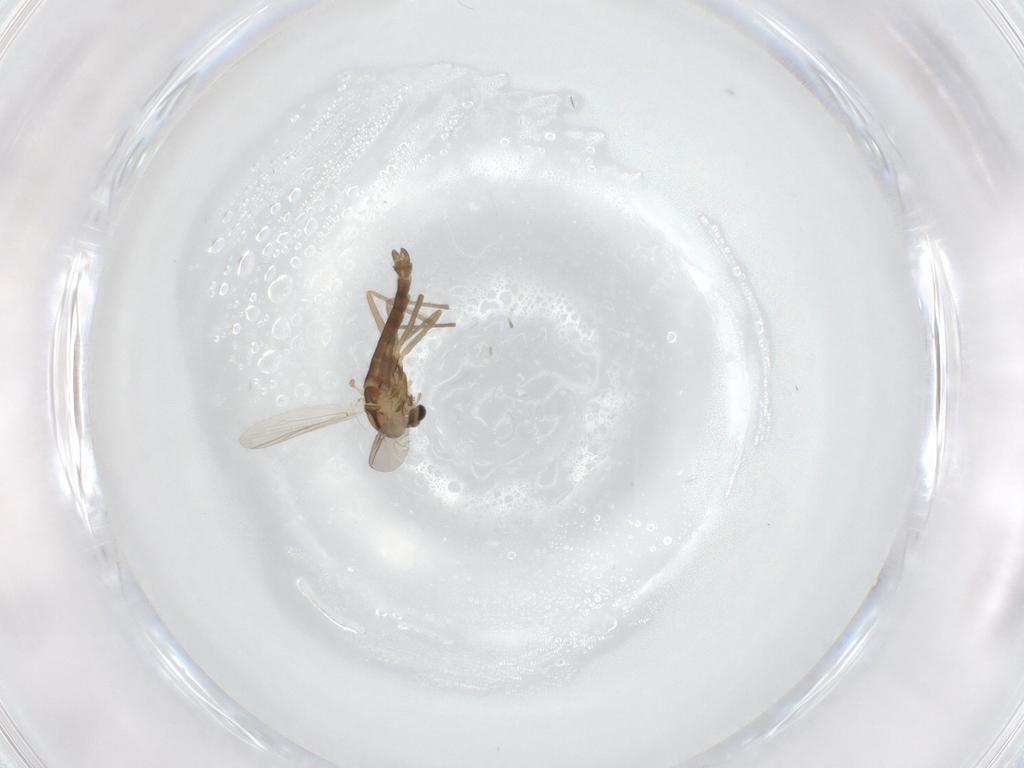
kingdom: Animalia
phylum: Arthropoda
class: Insecta
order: Diptera
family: Chironomidae
